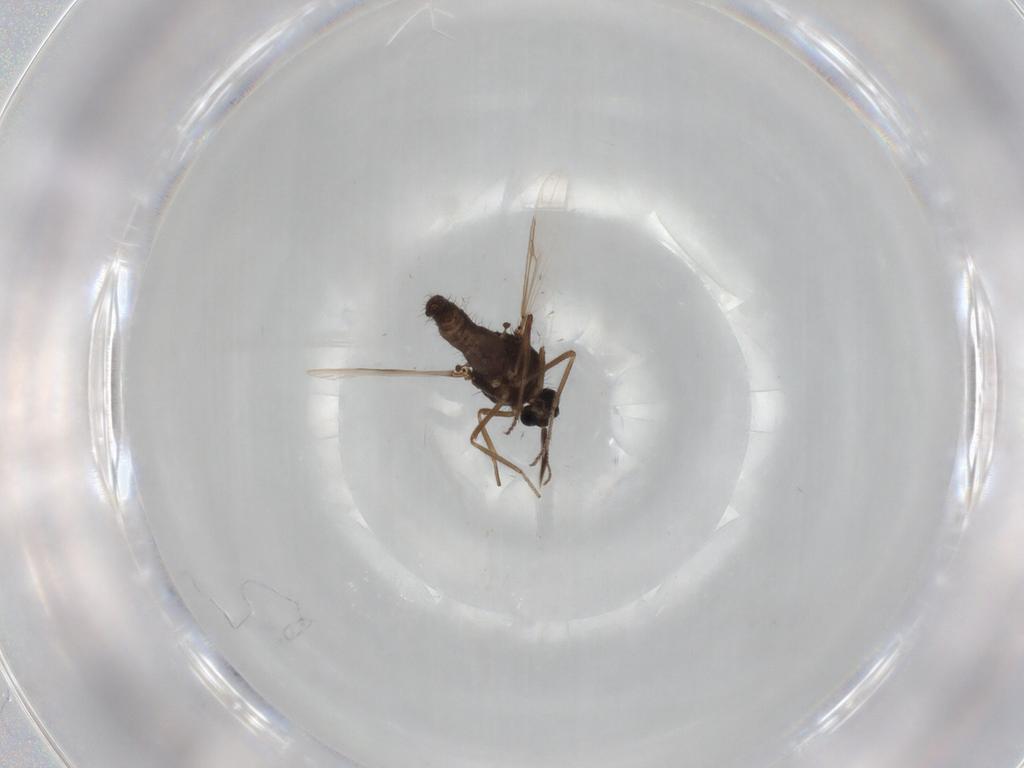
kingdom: Animalia
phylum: Arthropoda
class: Insecta
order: Diptera
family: Ceratopogonidae
